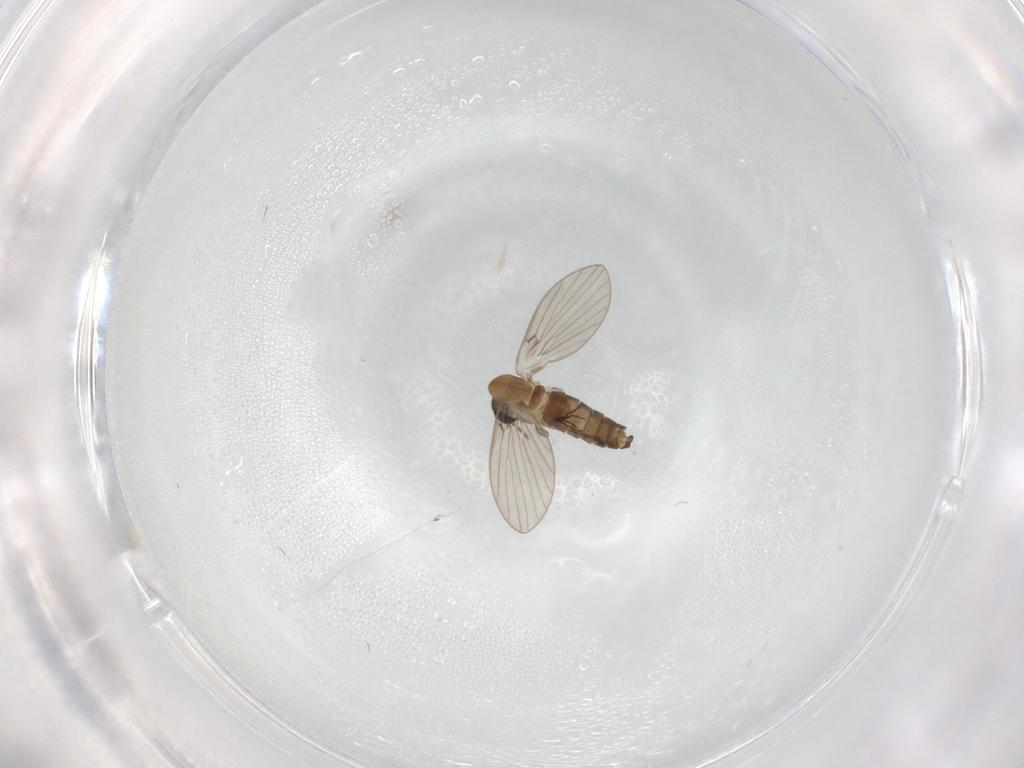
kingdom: Animalia
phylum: Arthropoda
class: Insecta
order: Diptera
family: Psychodidae
